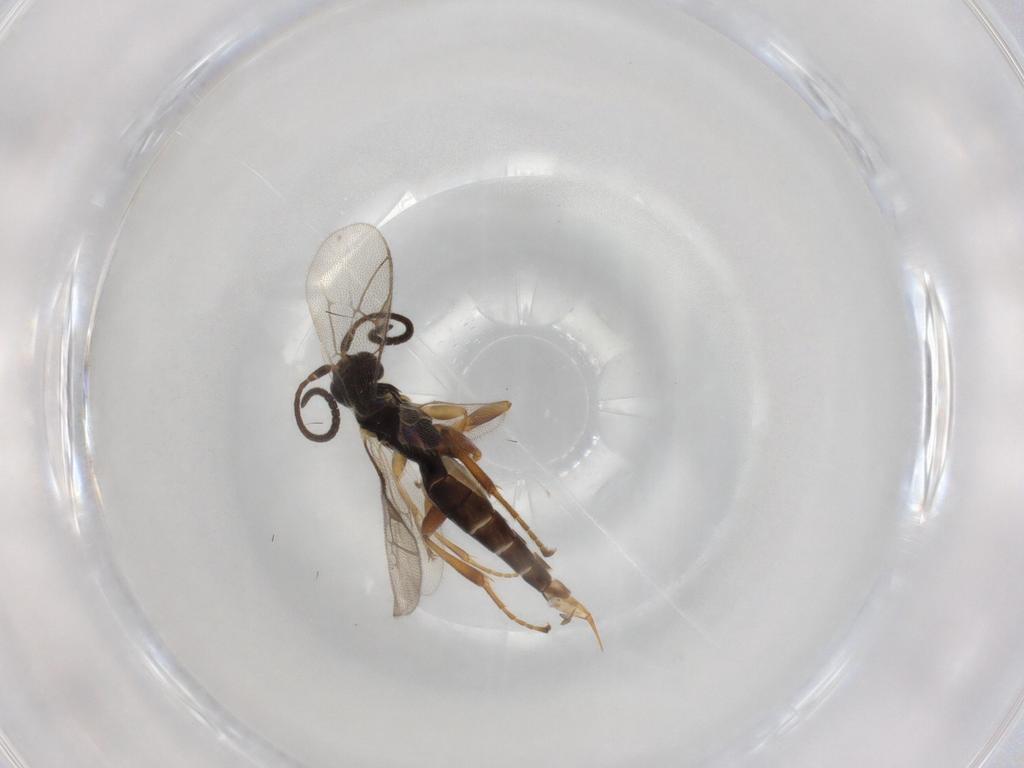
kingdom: Animalia
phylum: Arthropoda
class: Insecta
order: Hymenoptera
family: Ichneumonidae
